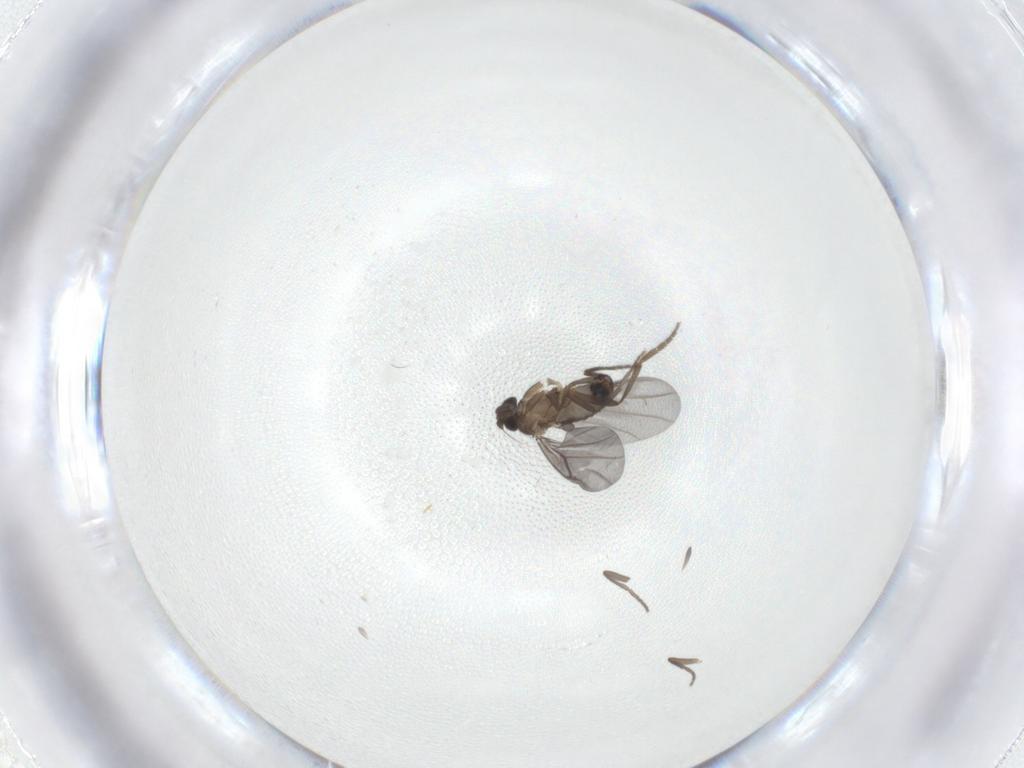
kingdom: Animalia
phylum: Arthropoda
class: Insecta
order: Diptera
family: Phoridae
